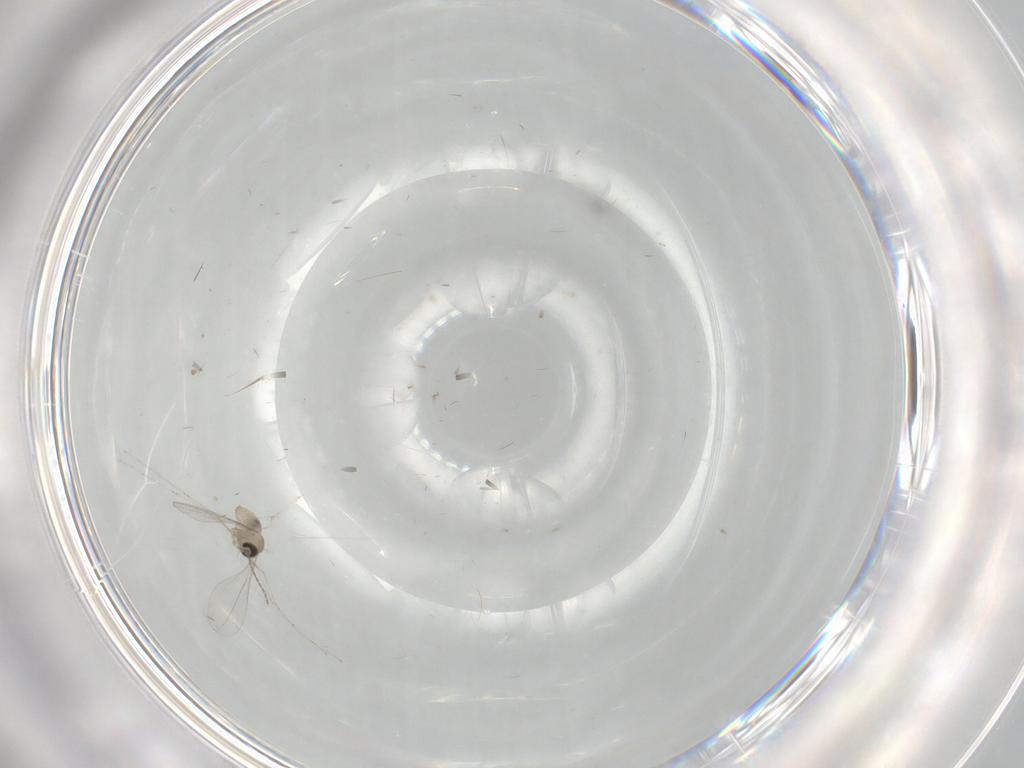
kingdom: Animalia
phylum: Arthropoda
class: Insecta
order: Diptera
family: Cecidomyiidae
